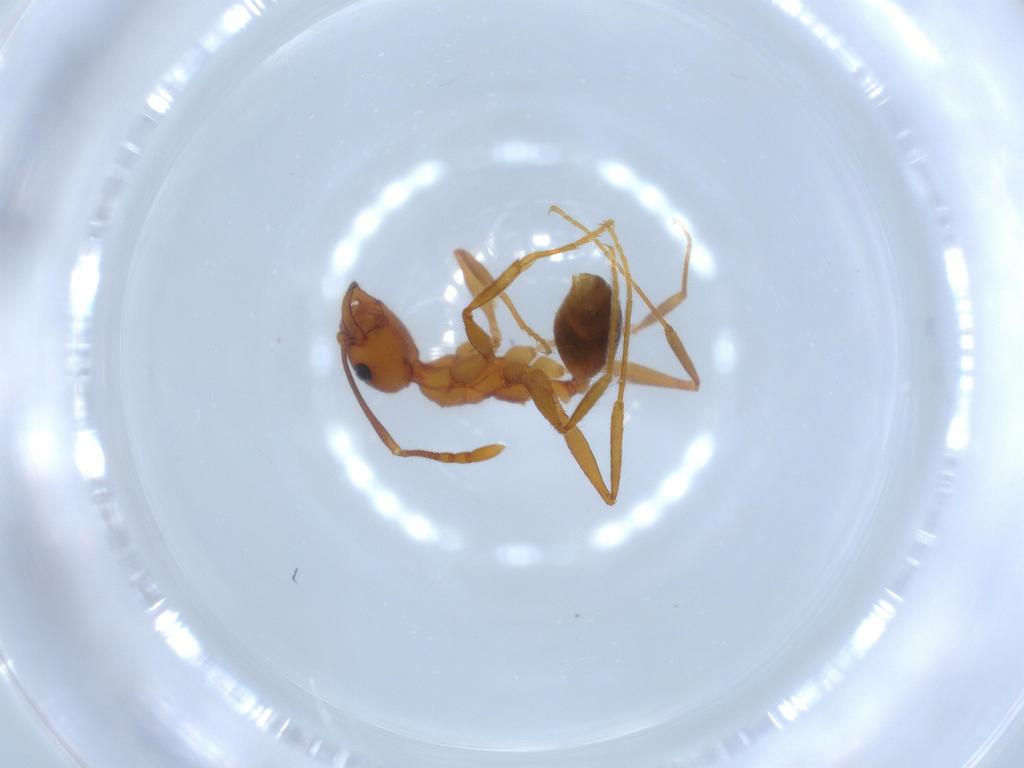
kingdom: Animalia
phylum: Arthropoda
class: Insecta
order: Hymenoptera
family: Formicidae
